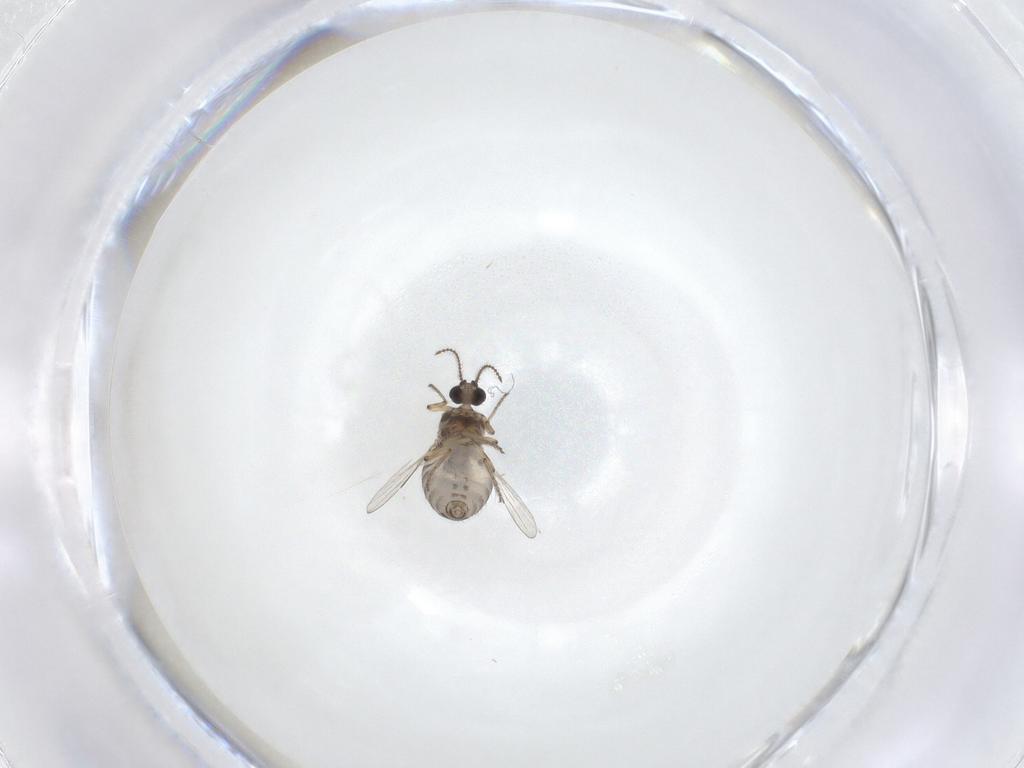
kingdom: Animalia
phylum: Arthropoda
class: Insecta
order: Diptera
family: Ceratopogonidae
